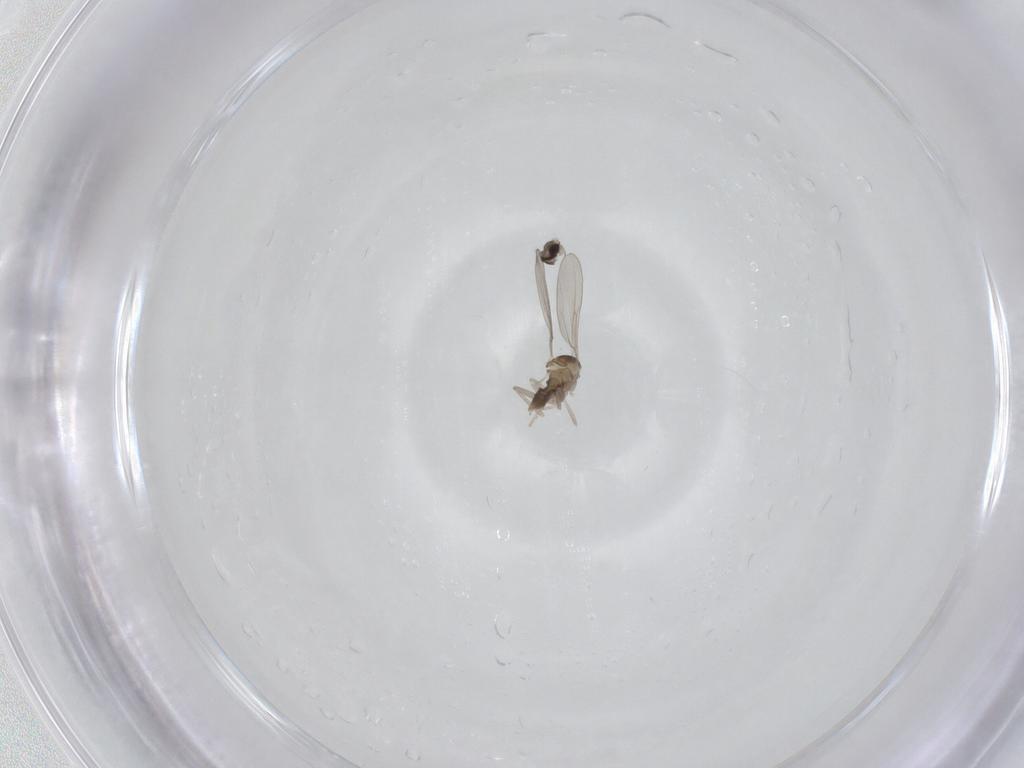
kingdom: Animalia
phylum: Arthropoda
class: Insecta
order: Diptera
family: Cecidomyiidae
